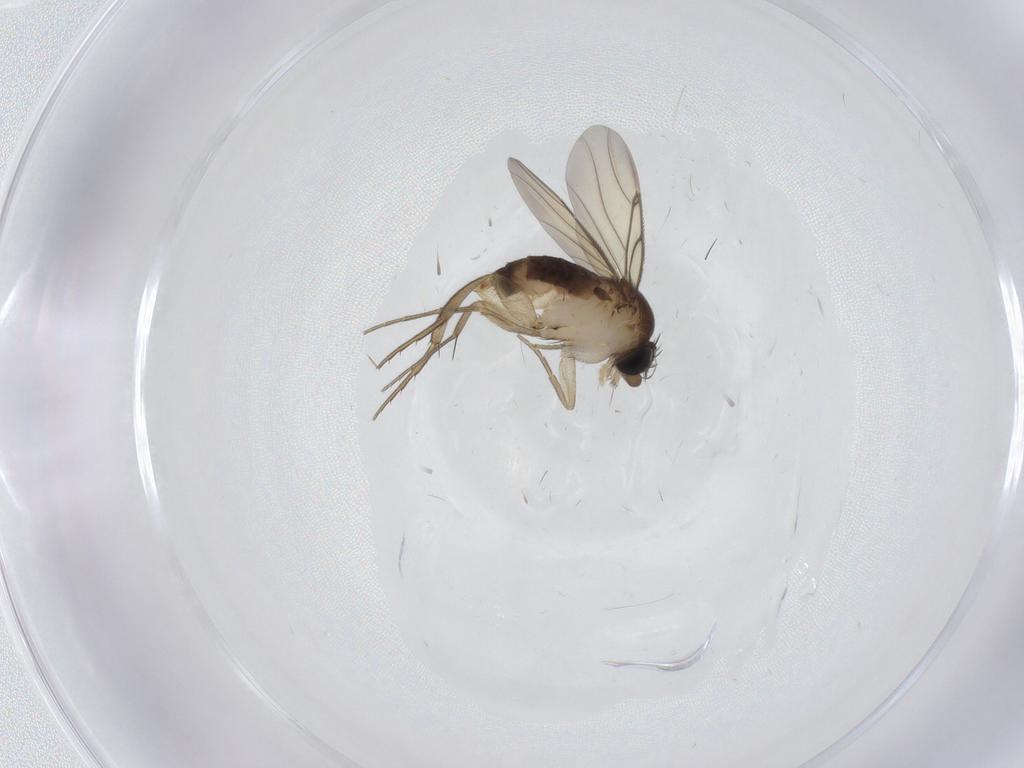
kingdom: Animalia
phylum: Arthropoda
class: Insecta
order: Diptera
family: Phoridae
